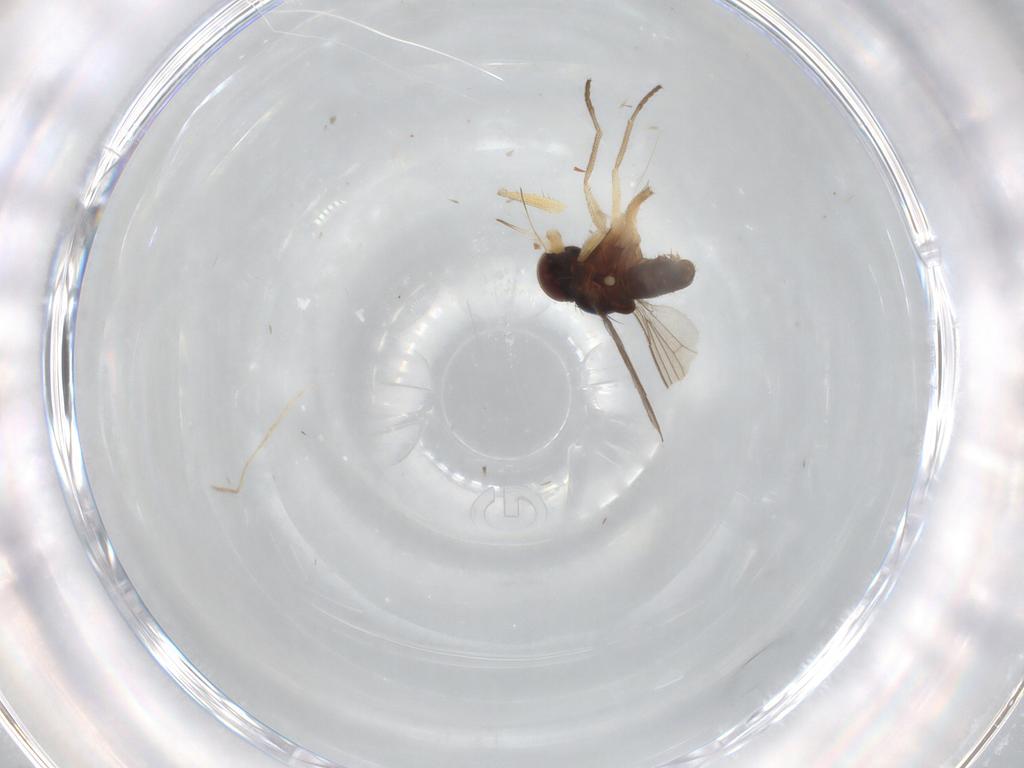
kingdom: Animalia
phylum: Arthropoda
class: Insecta
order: Diptera
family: Dolichopodidae
